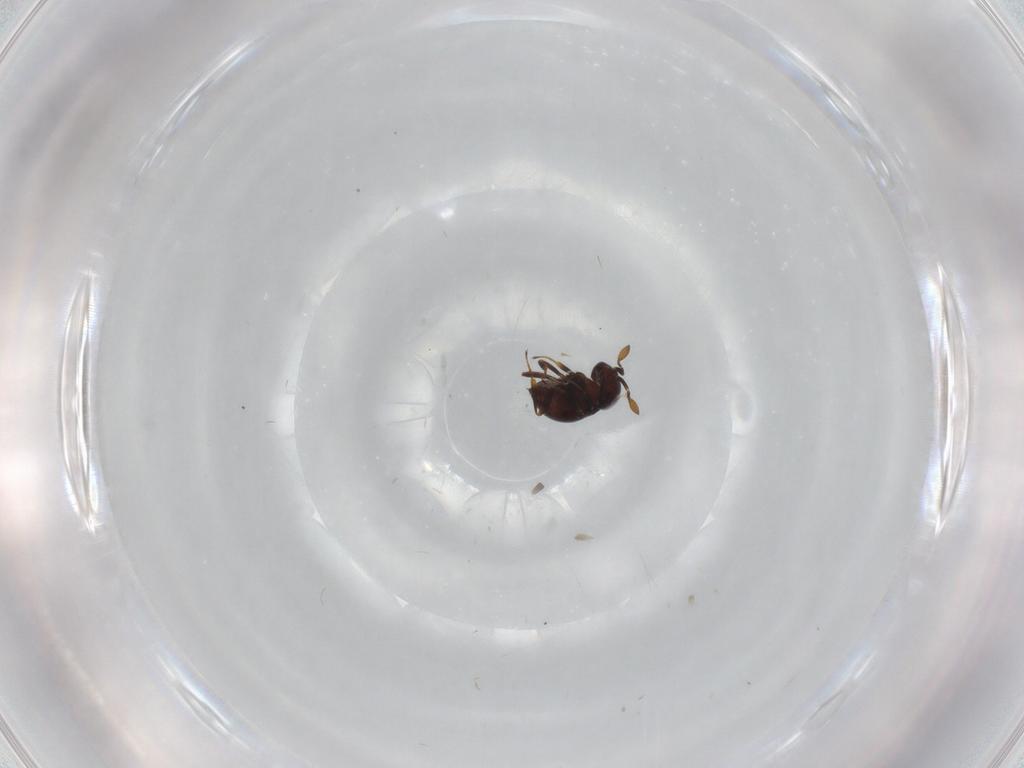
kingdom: Animalia
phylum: Arthropoda
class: Insecta
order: Hymenoptera
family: Scelionidae
